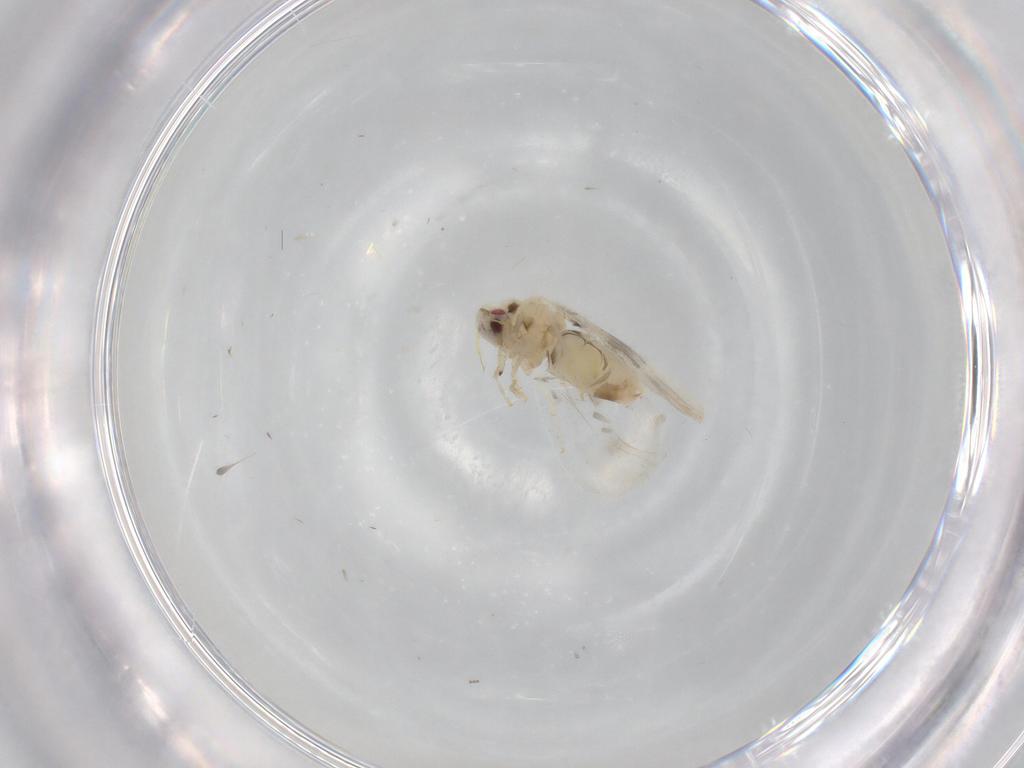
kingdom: Animalia
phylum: Arthropoda
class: Insecta
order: Hemiptera
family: Aleyrodidae
